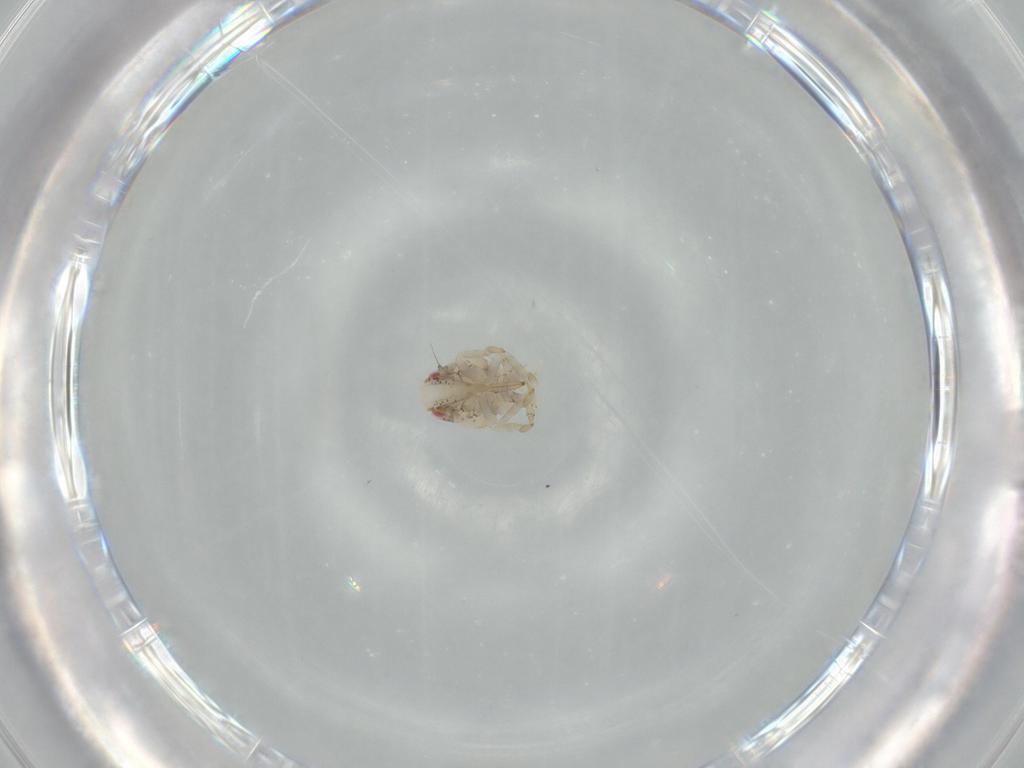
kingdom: Animalia
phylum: Arthropoda
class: Insecta
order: Hemiptera
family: Acanaloniidae
